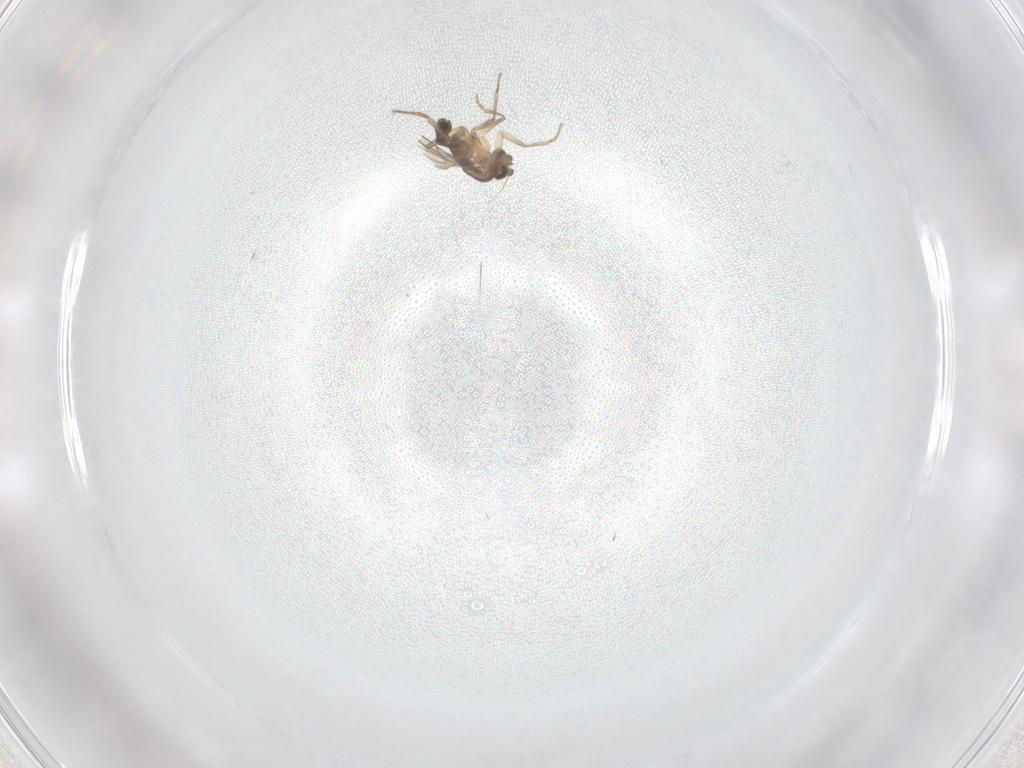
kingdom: Animalia
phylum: Arthropoda
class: Insecta
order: Diptera
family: Phoridae
